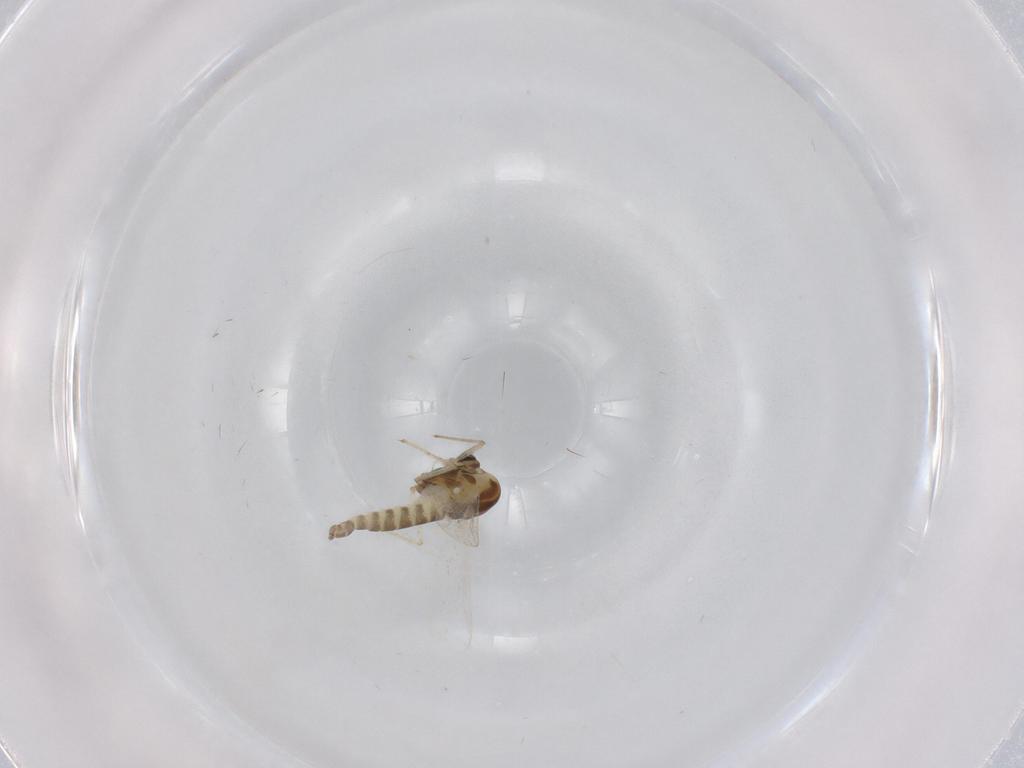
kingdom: Animalia
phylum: Arthropoda
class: Insecta
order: Diptera
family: Chironomidae
